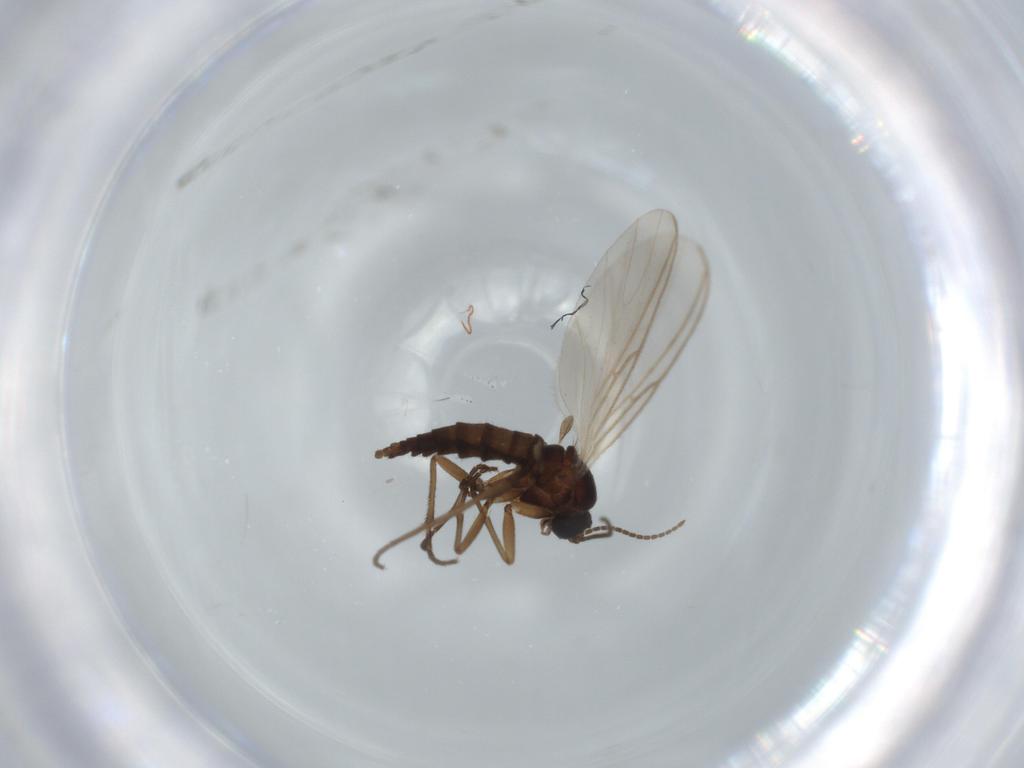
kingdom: Animalia
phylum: Arthropoda
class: Insecta
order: Diptera
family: Sciaridae
